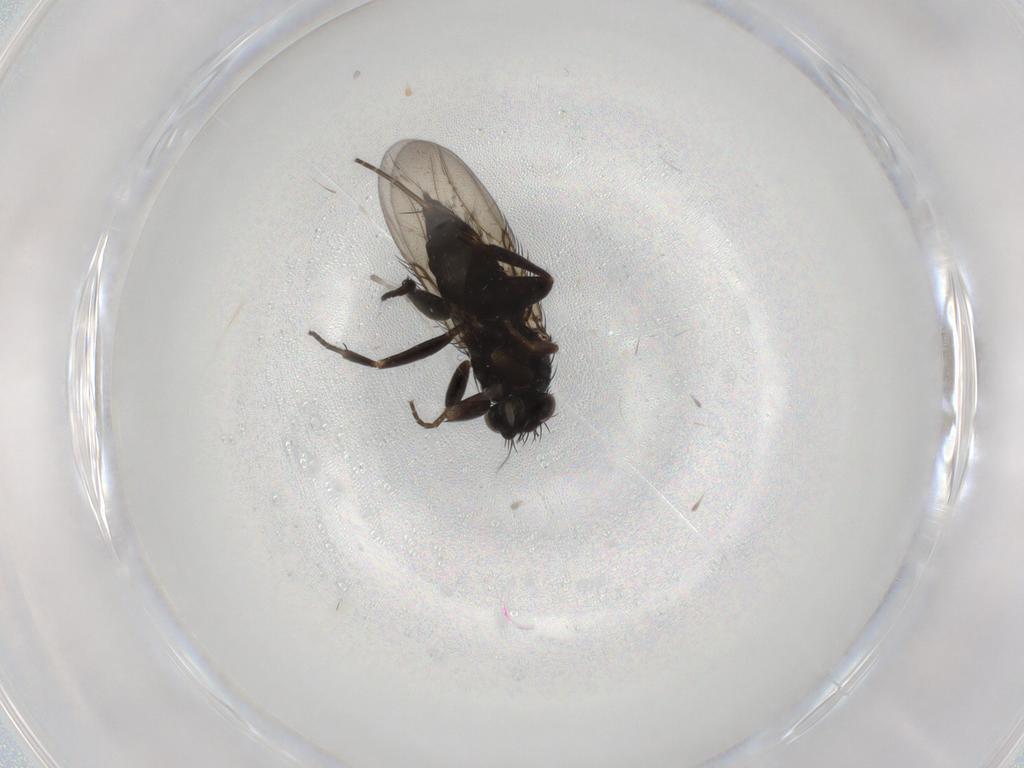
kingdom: Animalia
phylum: Arthropoda
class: Insecta
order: Diptera
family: Phoridae
